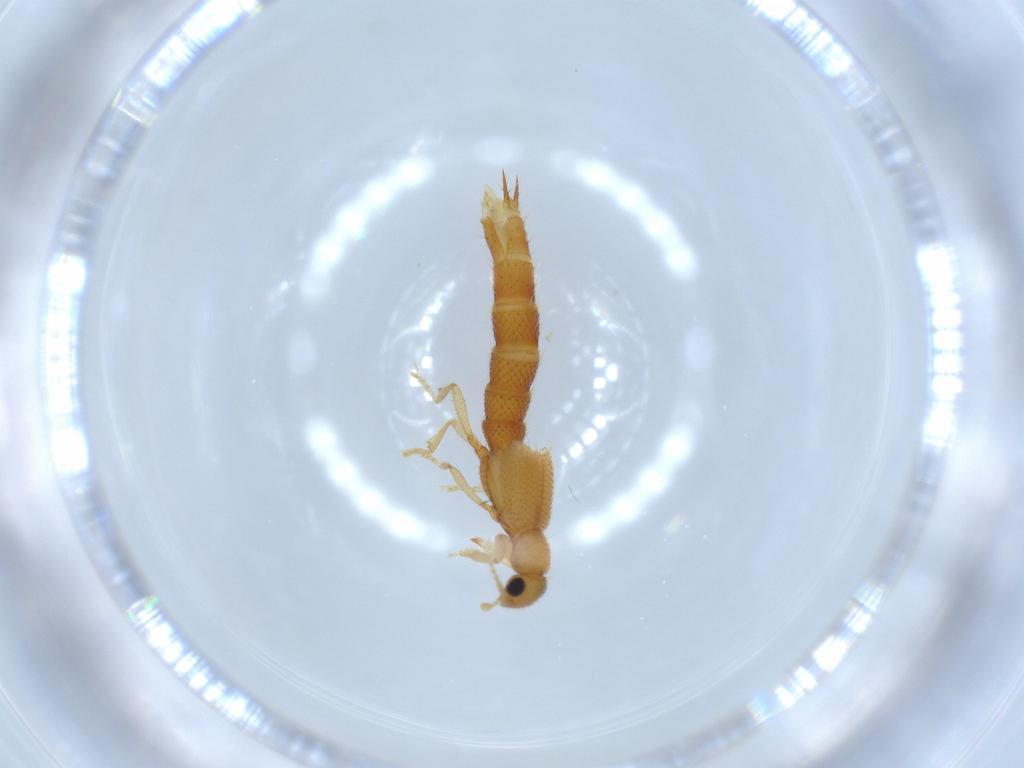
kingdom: Animalia
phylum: Arthropoda
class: Insecta
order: Coleoptera
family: Staphylinidae
